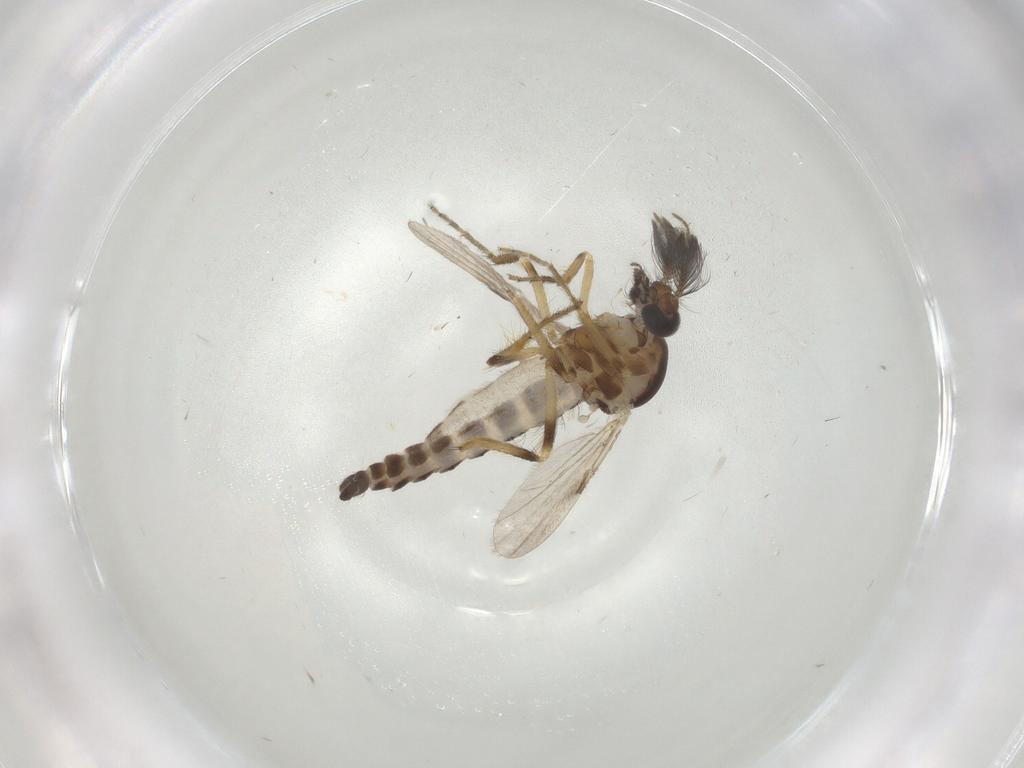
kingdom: Animalia
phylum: Arthropoda
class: Insecta
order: Diptera
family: Ceratopogonidae
